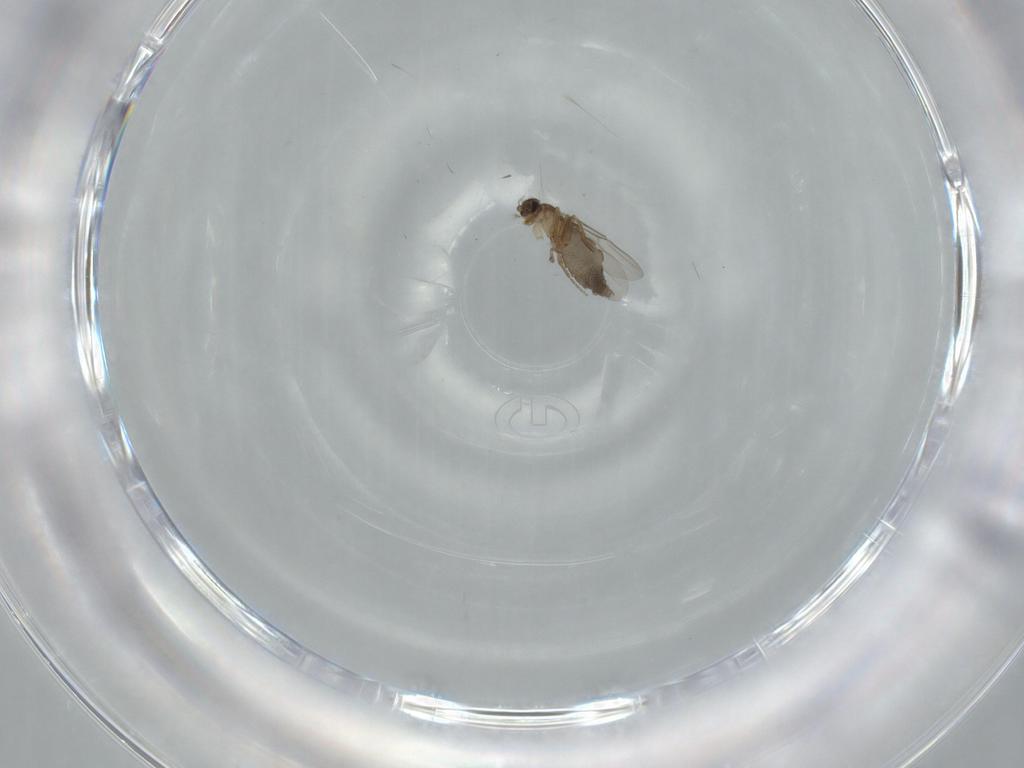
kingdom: Animalia
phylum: Arthropoda
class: Insecta
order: Diptera
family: Phoridae
